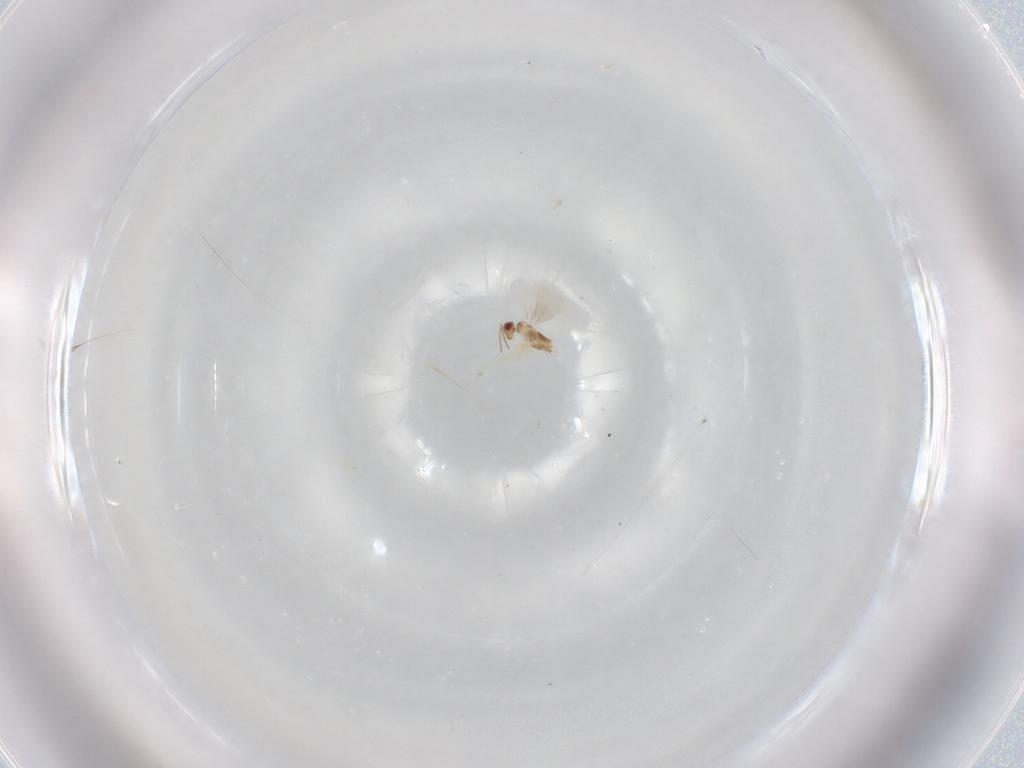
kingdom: Animalia
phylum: Arthropoda
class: Insecta
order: Hymenoptera
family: Aphelinidae
